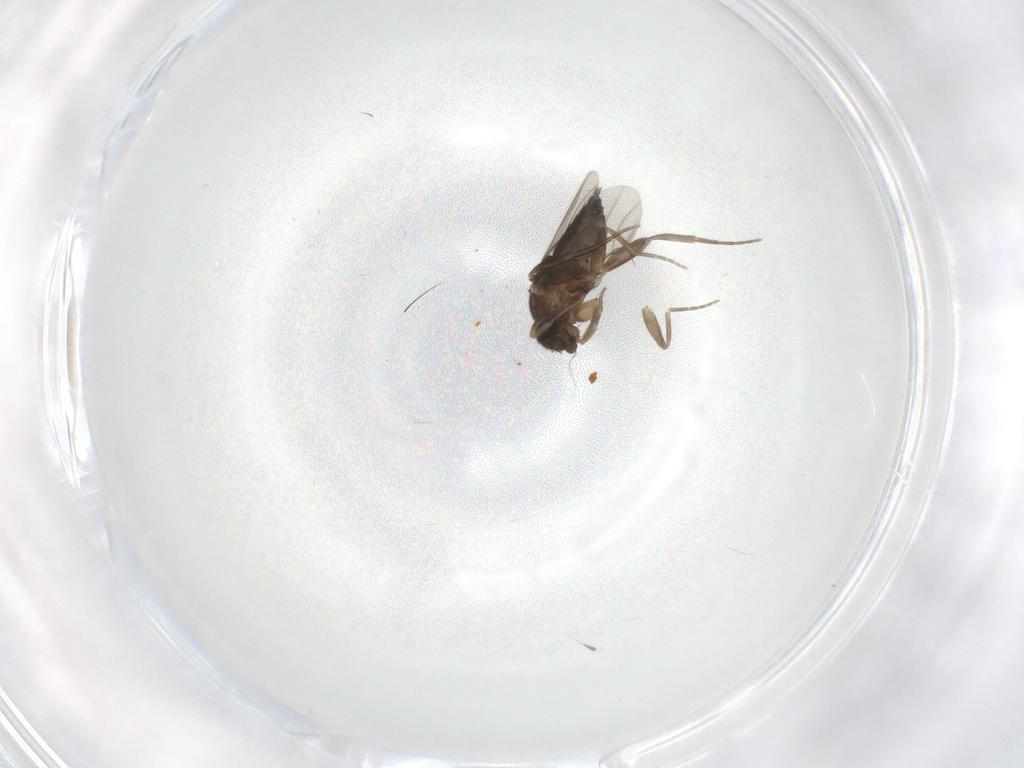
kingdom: Animalia
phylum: Arthropoda
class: Insecta
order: Diptera
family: Phoridae
